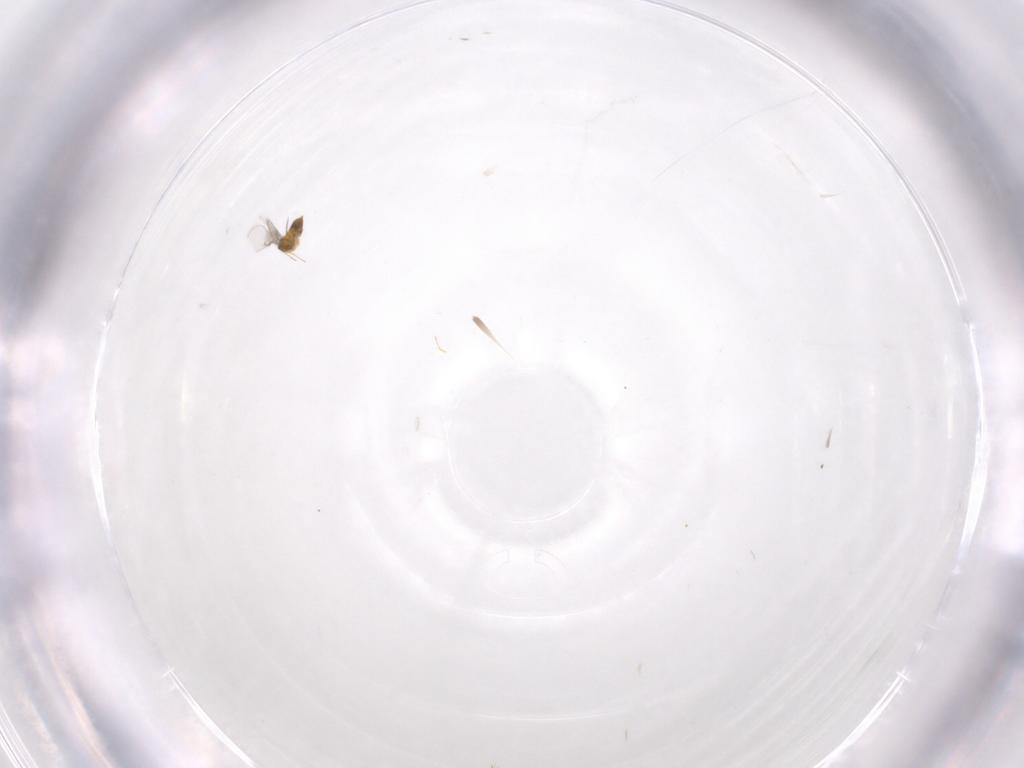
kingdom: Animalia
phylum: Arthropoda
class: Insecta
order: Hymenoptera
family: Trichogrammatidae
